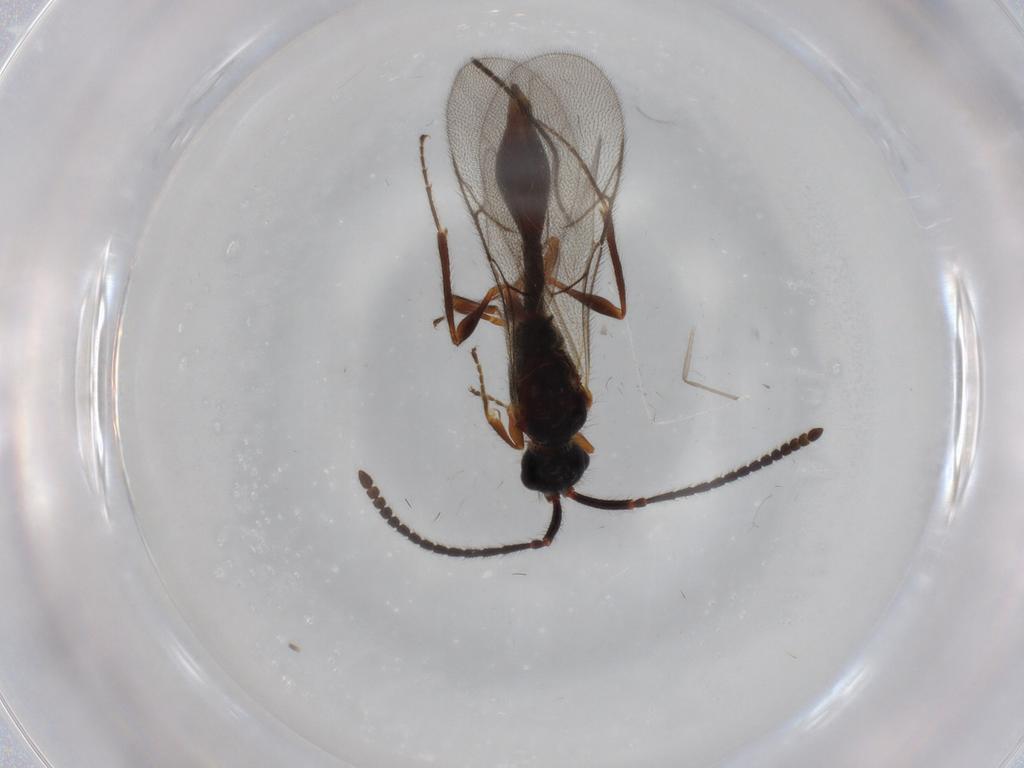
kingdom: Animalia
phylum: Arthropoda
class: Insecta
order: Hymenoptera
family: Diapriidae
